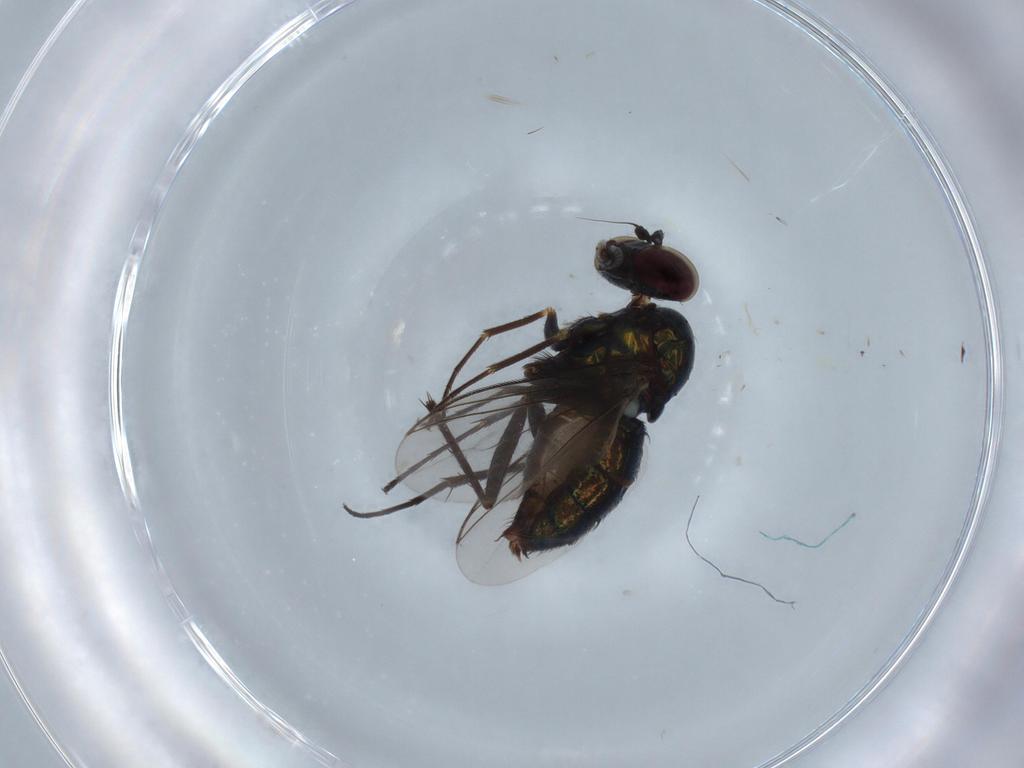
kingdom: Animalia
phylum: Arthropoda
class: Insecta
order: Diptera
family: Dolichopodidae
